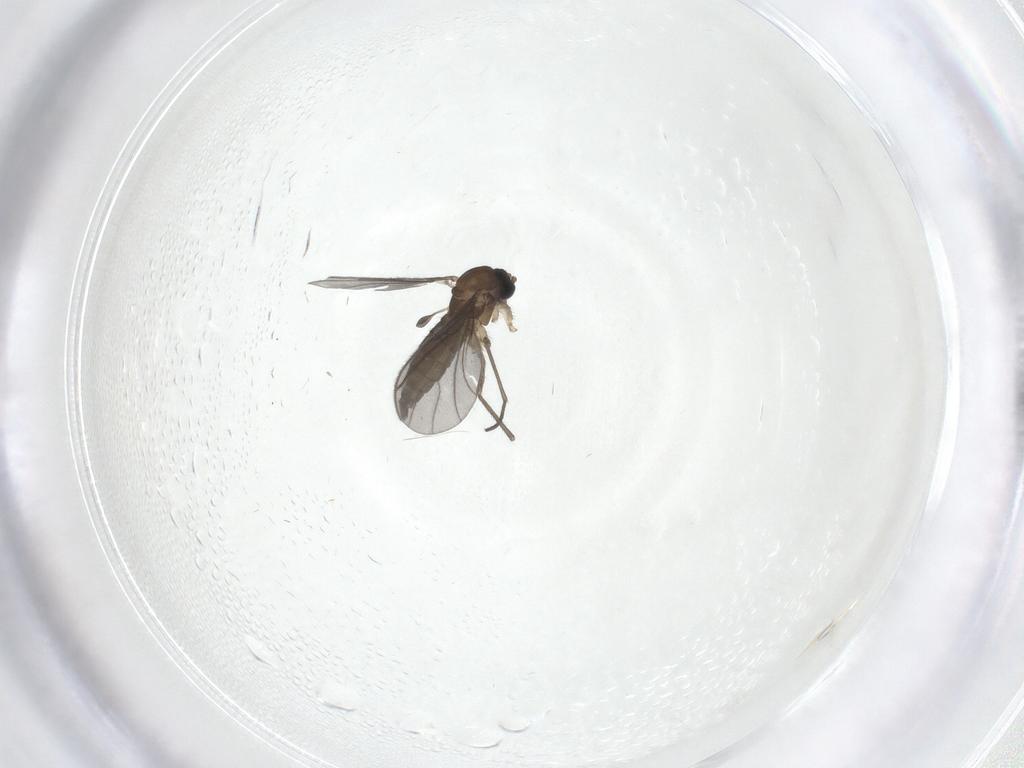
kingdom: Animalia
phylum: Arthropoda
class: Insecta
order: Diptera
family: Sciaridae
